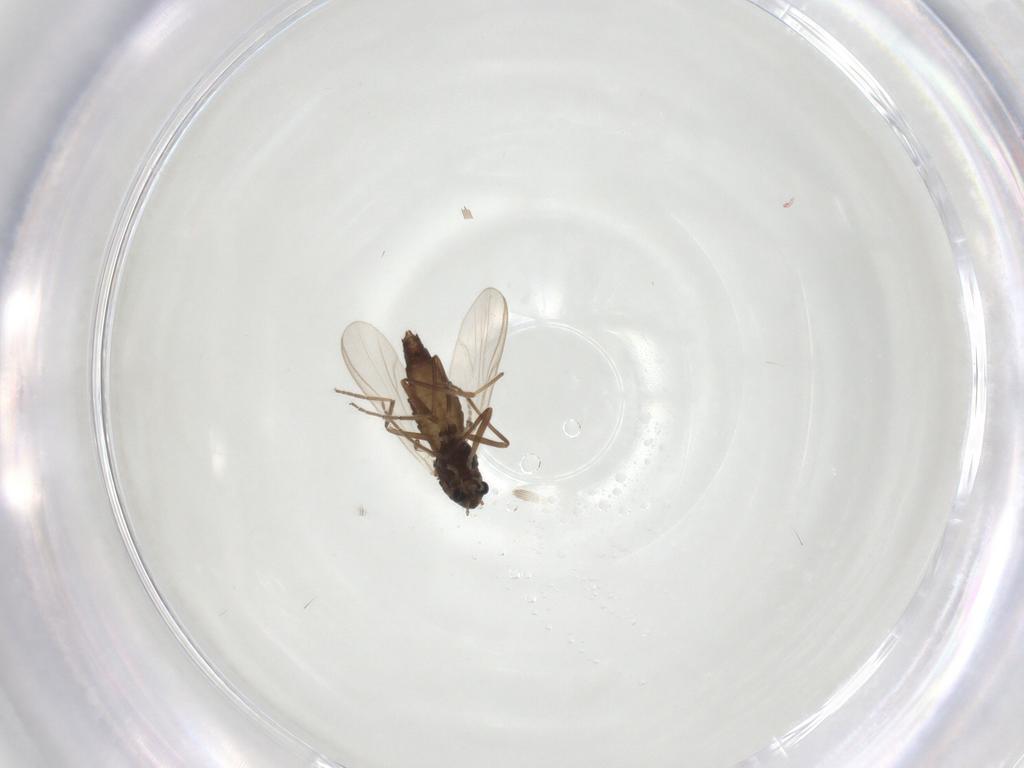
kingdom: Animalia
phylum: Arthropoda
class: Insecta
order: Diptera
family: Chironomidae
